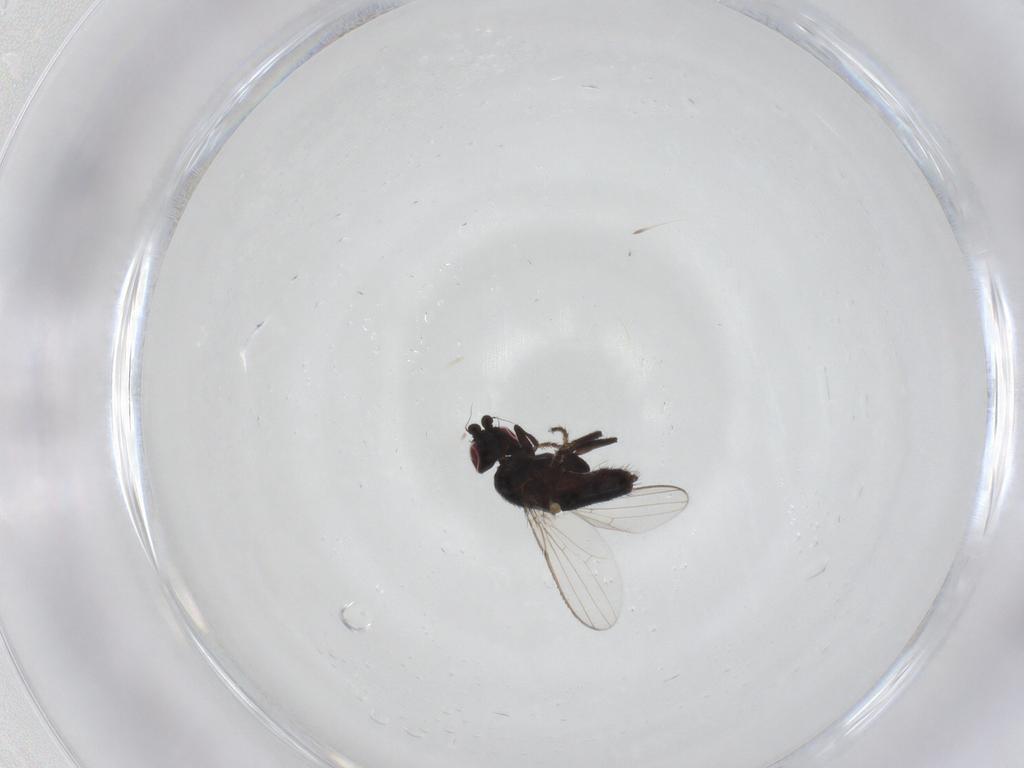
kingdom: Animalia
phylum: Arthropoda
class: Insecta
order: Diptera
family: Milichiidae
